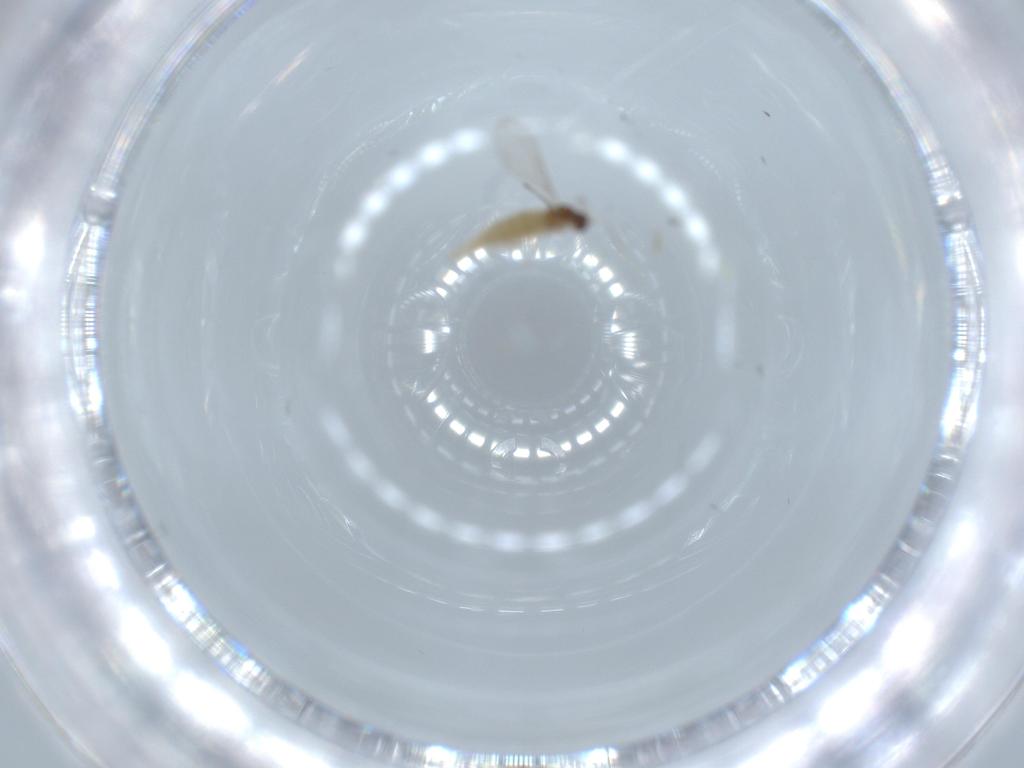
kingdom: Animalia
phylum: Arthropoda
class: Insecta
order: Diptera
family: Cecidomyiidae
